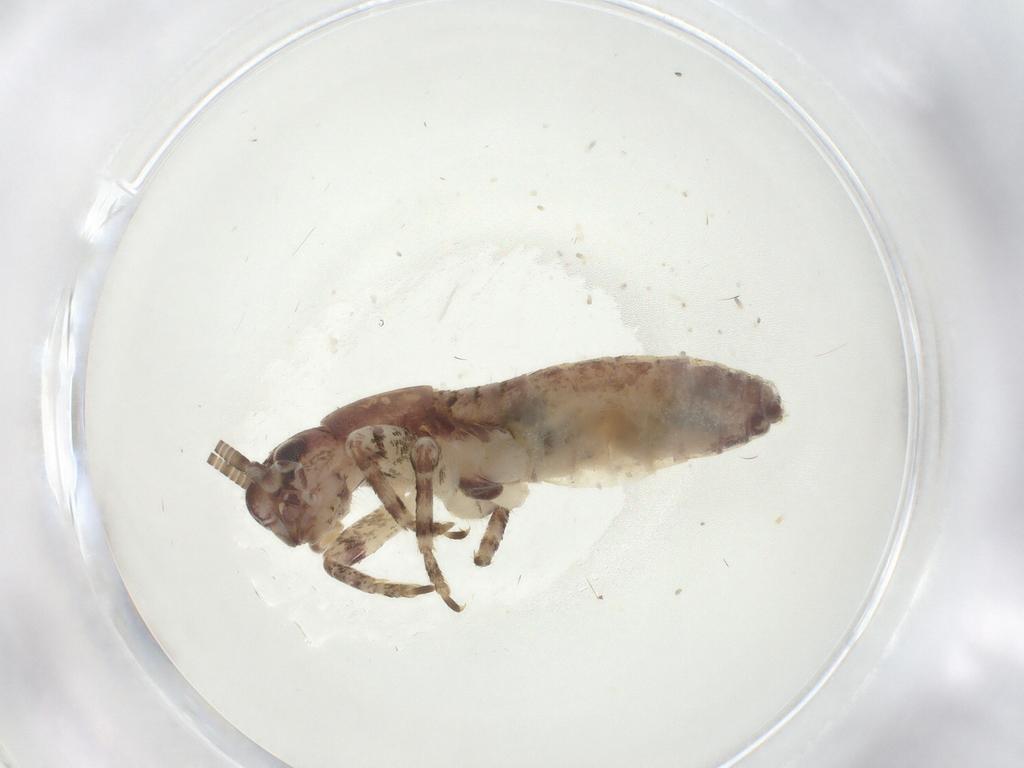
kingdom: Animalia
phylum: Arthropoda
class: Insecta
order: Orthoptera
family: Gryllidae
